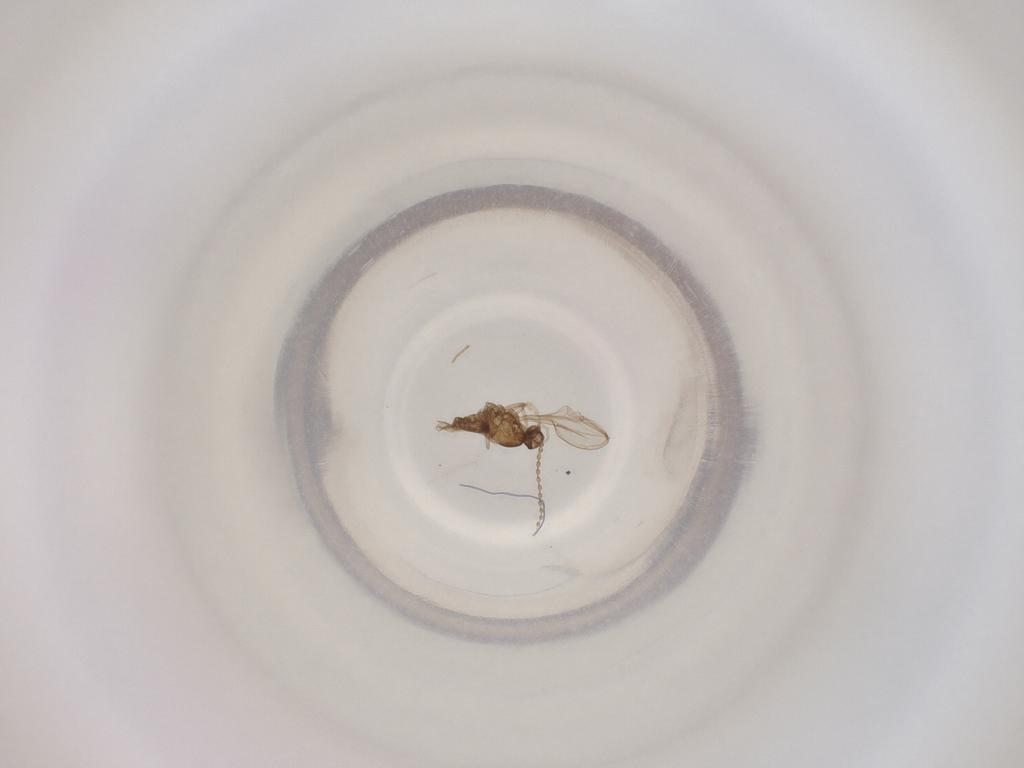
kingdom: Animalia
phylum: Arthropoda
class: Insecta
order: Diptera
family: Cecidomyiidae
